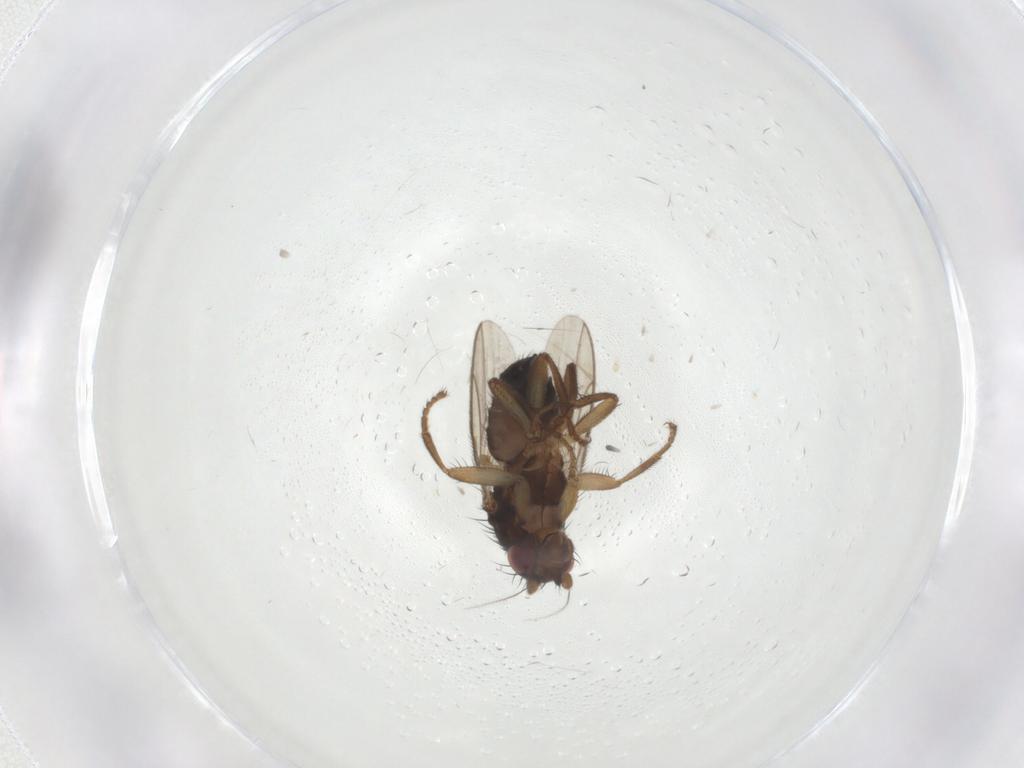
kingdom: Animalia
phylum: Arthropoda
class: Insecta
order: Diptera
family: Sphaeroceridae
